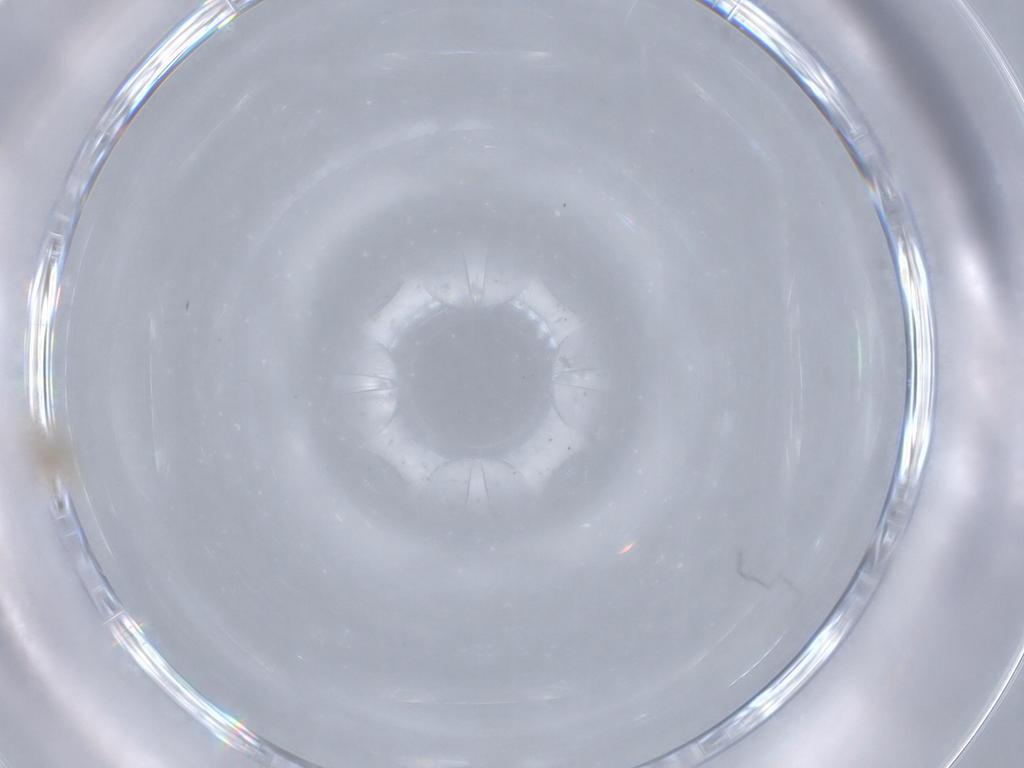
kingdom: Animalia
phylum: Arthropoda
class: Insecta
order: Diptera
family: Dolichopodidae
